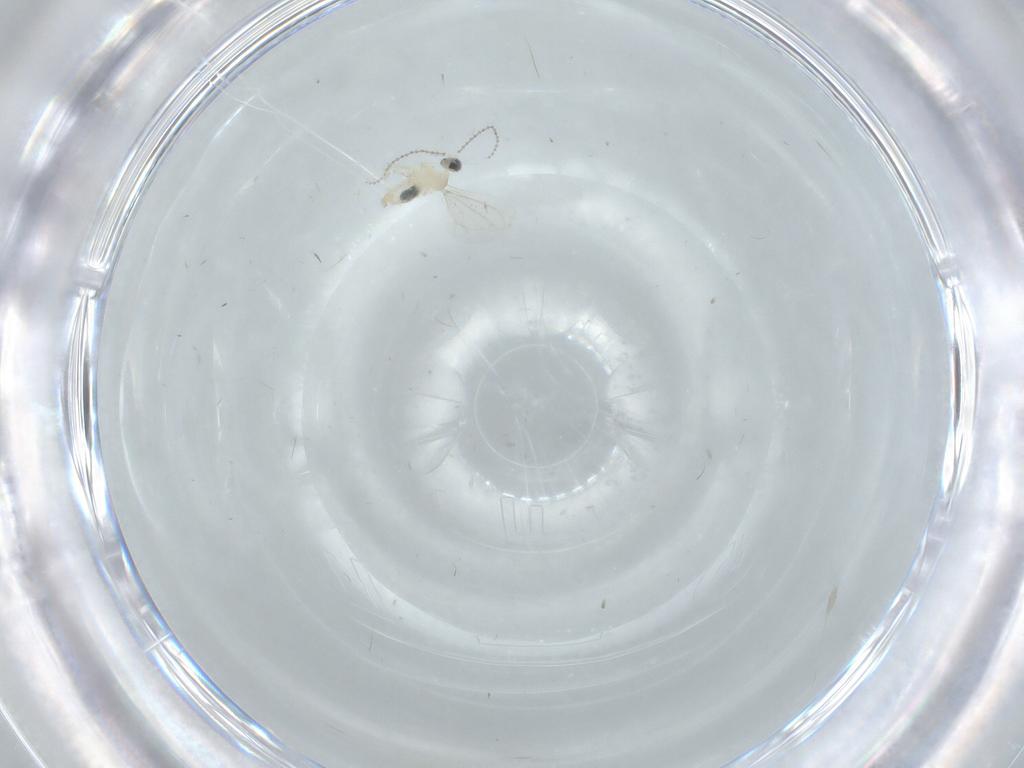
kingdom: Animalia
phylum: Arthropoda
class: Insecta
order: Diptera
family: Sciaridae
